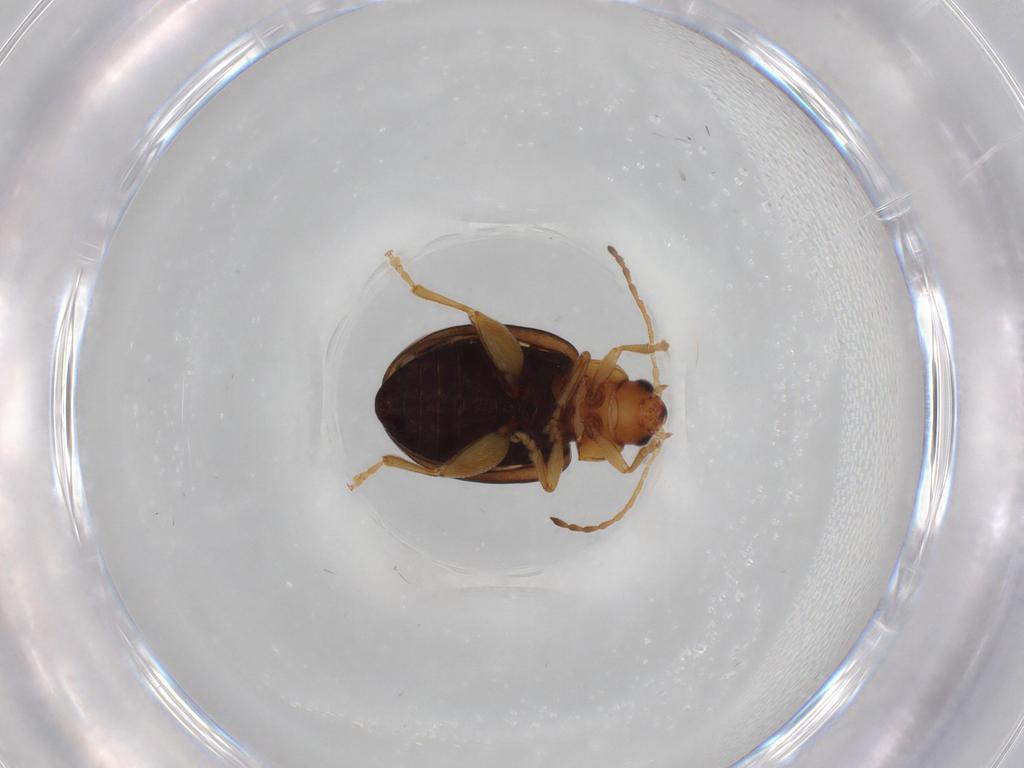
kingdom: Animalia
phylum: Arthropoda
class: Insecta
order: Coleoptera
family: Chrysomelidae
